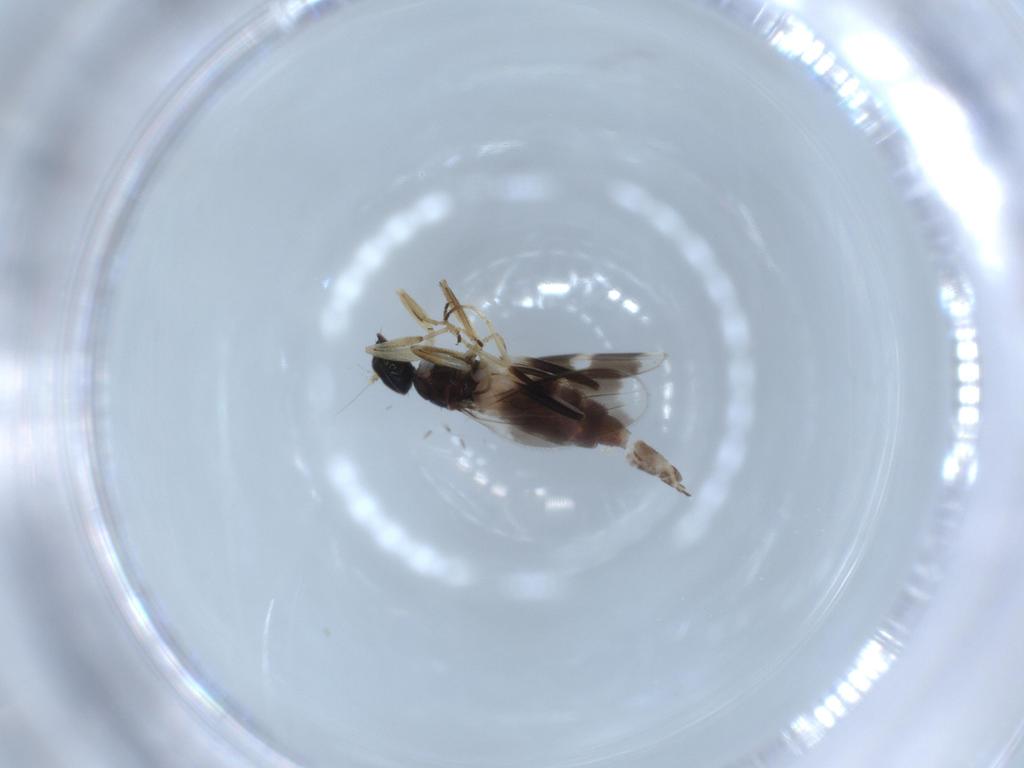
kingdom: Animalia
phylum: Arthropoda
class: Insecta
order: Diptera
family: Hybotidae
